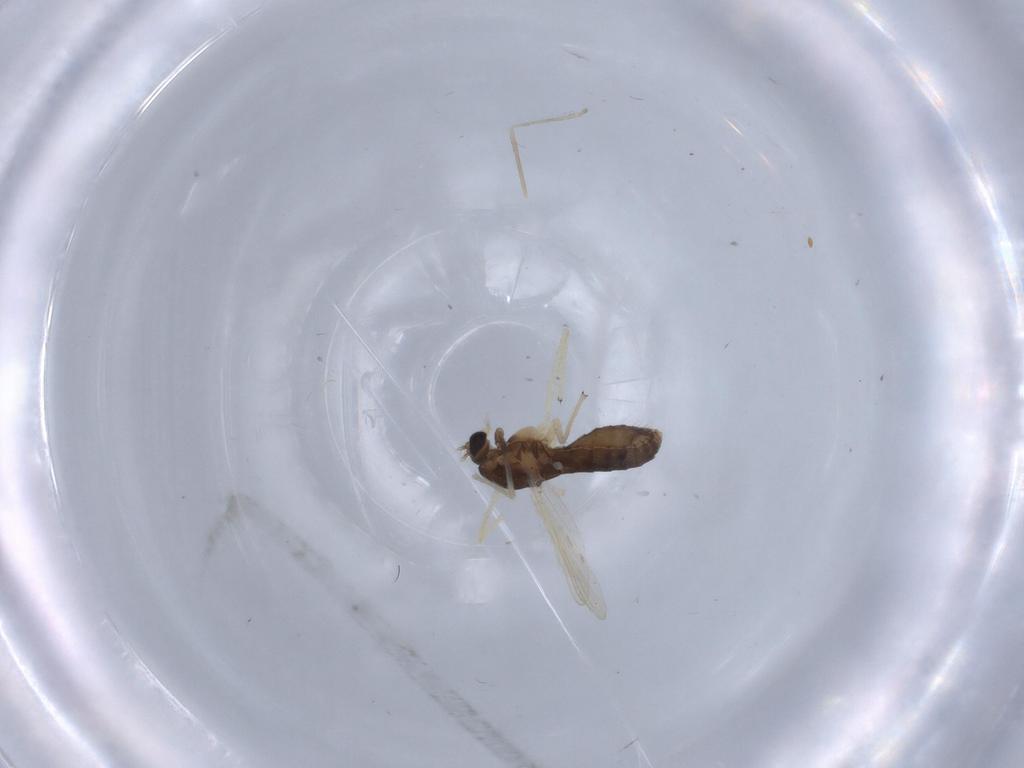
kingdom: Animalia
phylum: Arthropoda
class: Insecta
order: Diptera
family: Chironomidae
